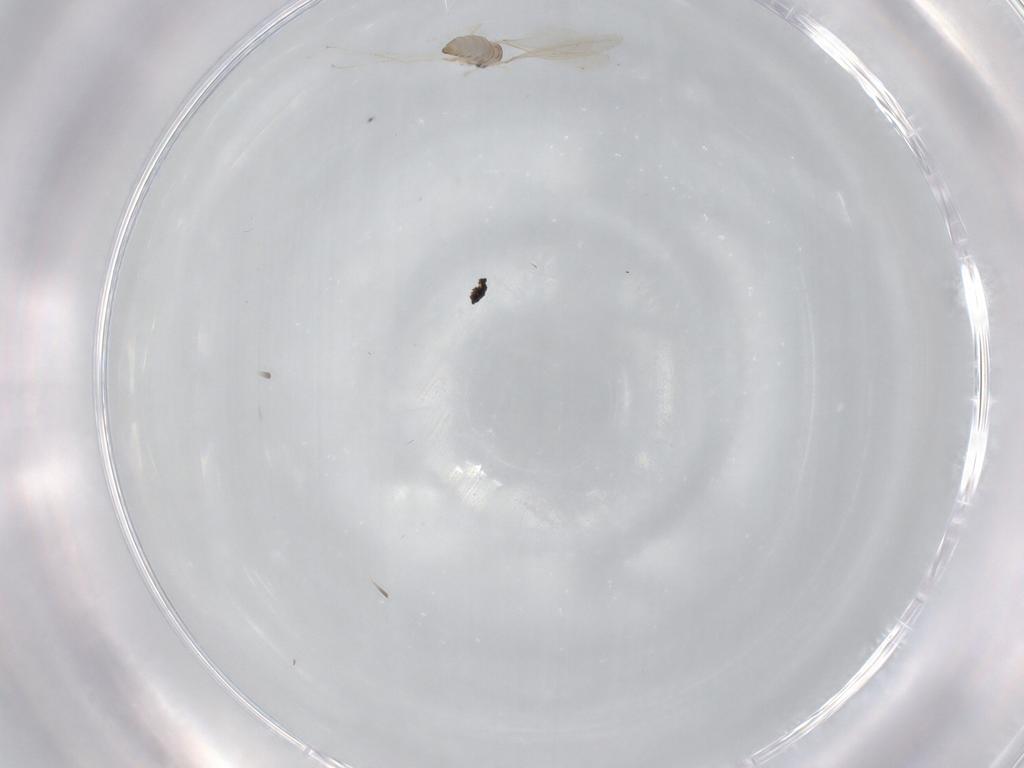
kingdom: Animalia
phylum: Arthropoda
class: Insecta
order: Diptera
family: Cecidomyiidae
